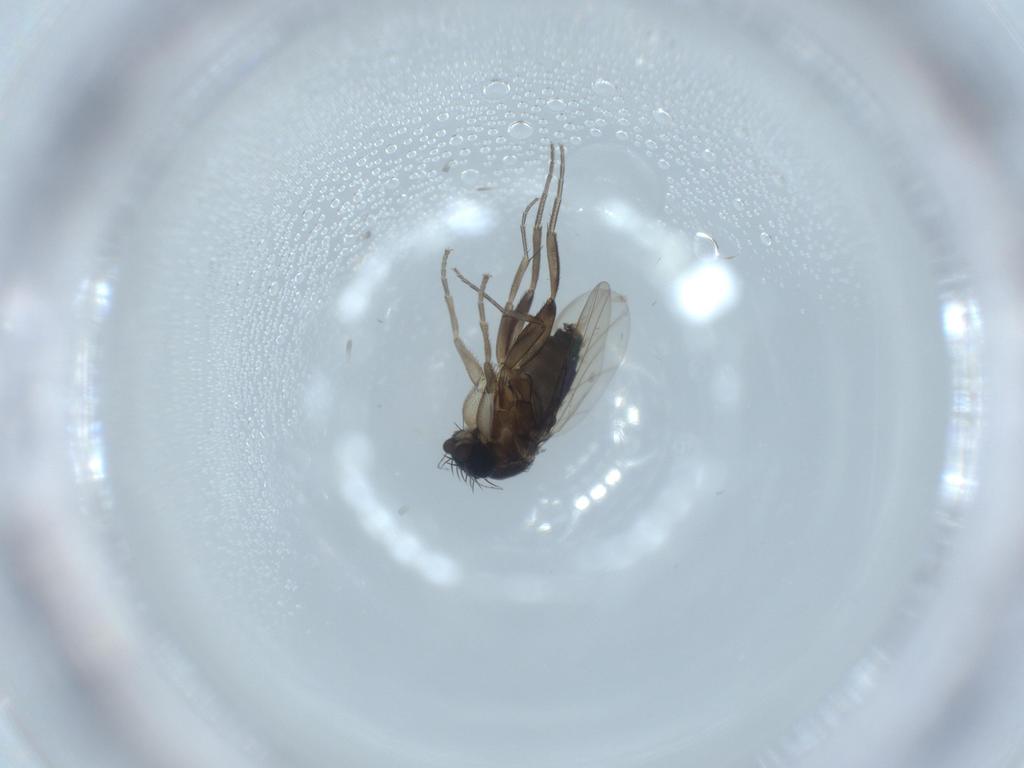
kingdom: Animalia
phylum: Arthropoda
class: Insecta
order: Diptera
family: Phoridae
